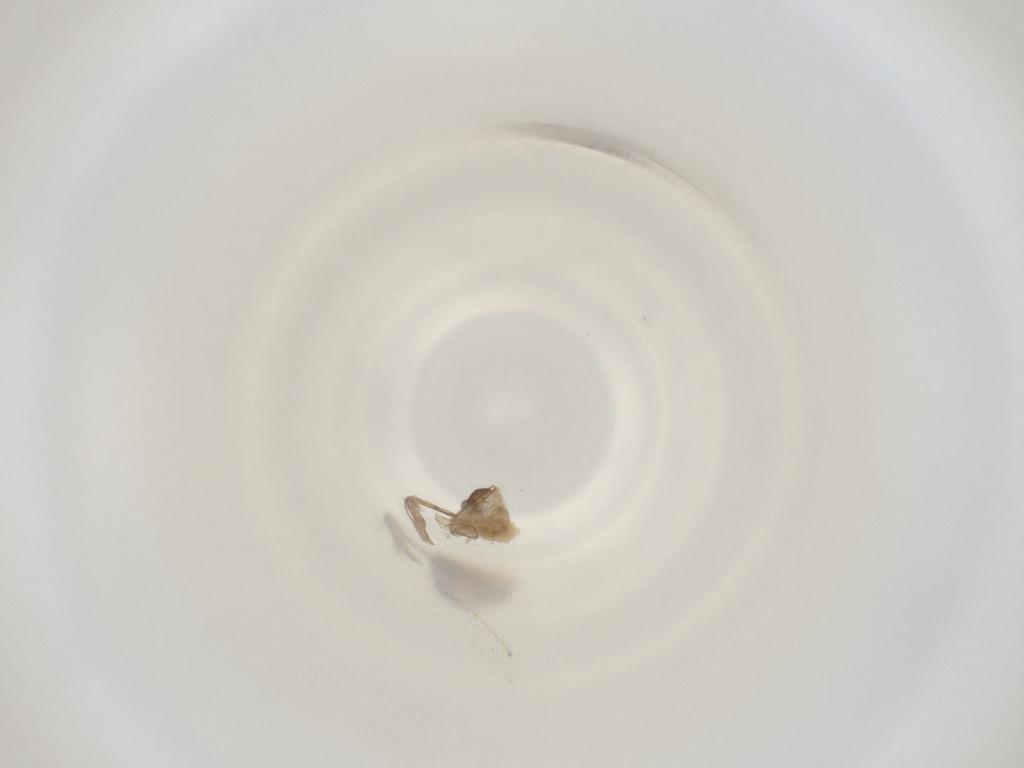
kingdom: Animalia
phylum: Arthropoda
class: Insecta
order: Diptera
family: Cecidomyiidae
